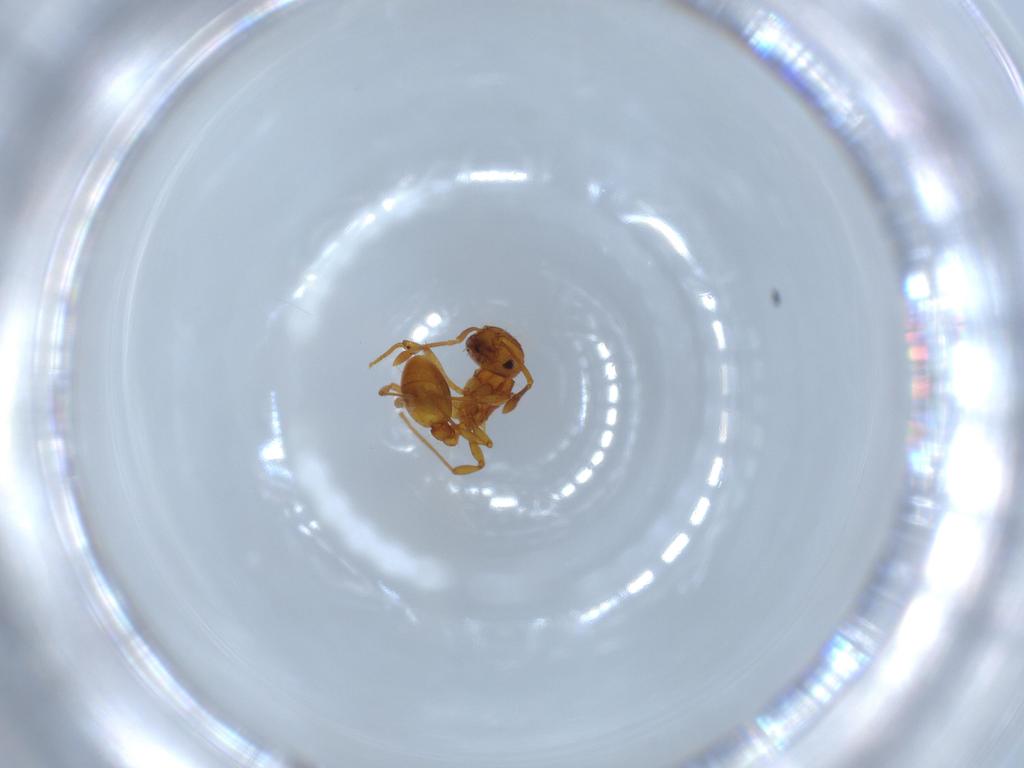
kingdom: Animalia
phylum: Arthropoda
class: Insecta
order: Hymenoptera
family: Formicidae
